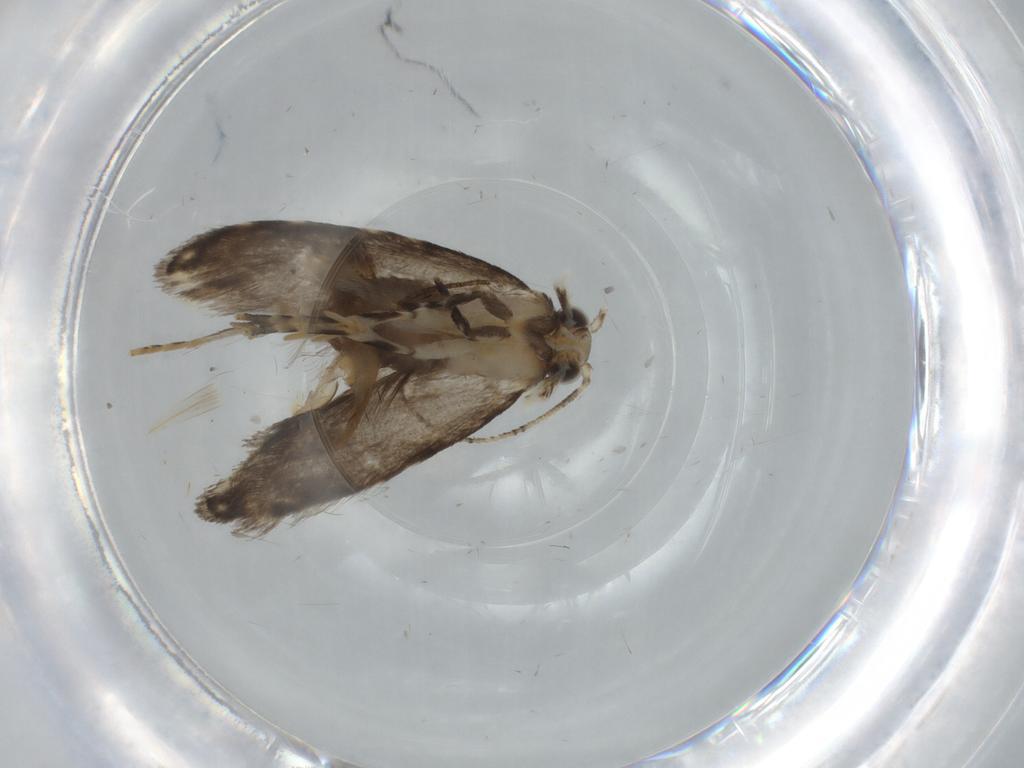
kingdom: Animalia
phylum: Arthropoda
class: Insecta
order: Lepidoptera
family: Tineidae
